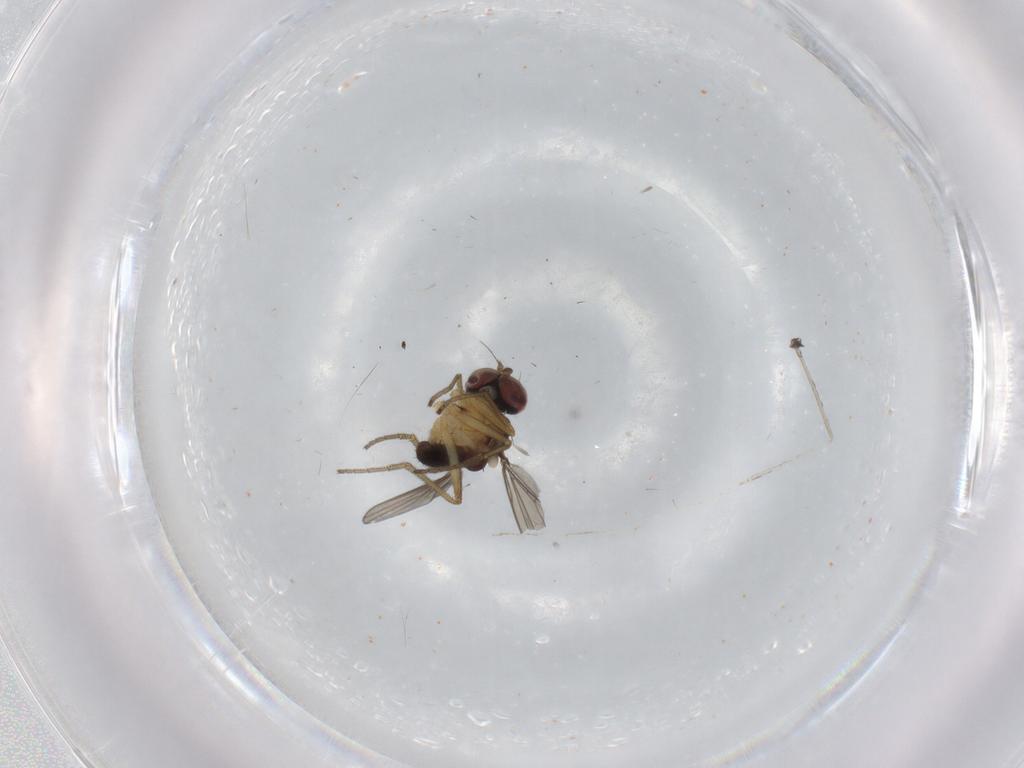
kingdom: Animalia
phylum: Arthropoda
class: Insecta
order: Diptera
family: Dolichopodidae
